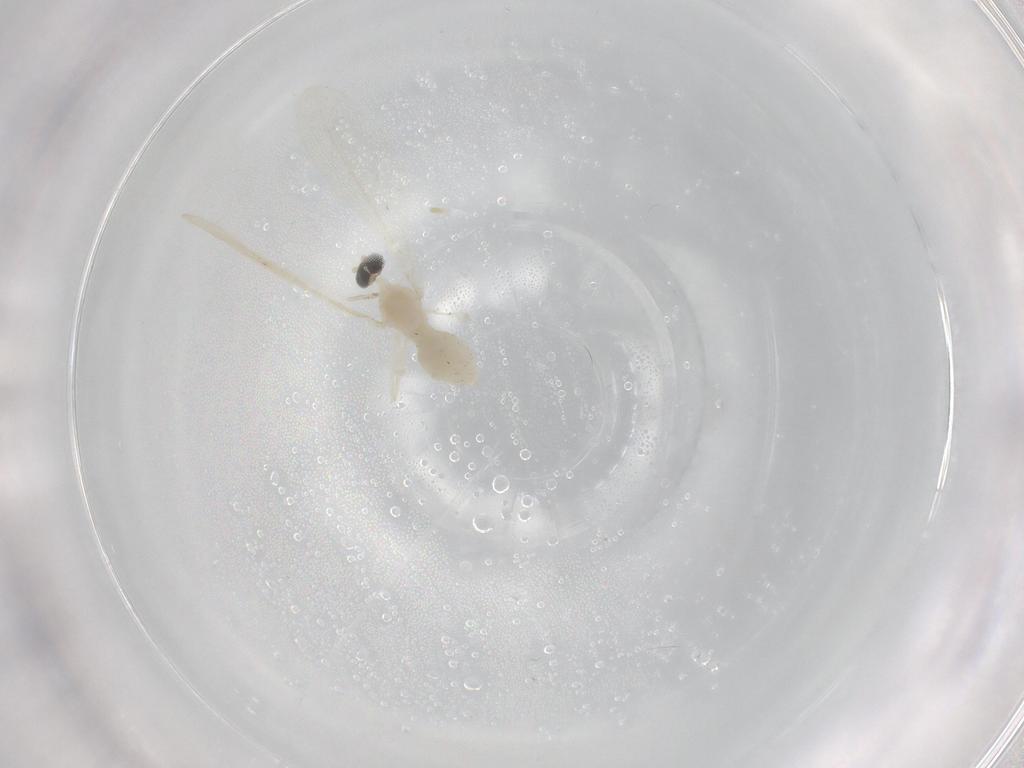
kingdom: Animalia
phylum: Arthropoda
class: Insecta
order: Diptera
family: Cecidomyiidae
